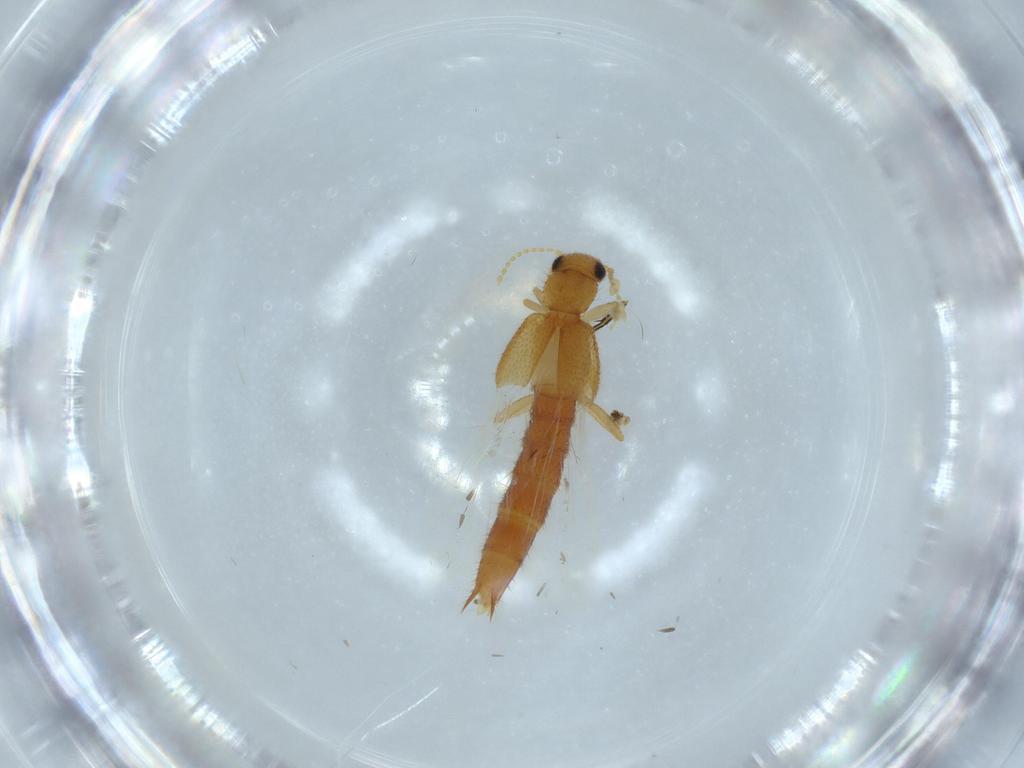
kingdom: Animalia
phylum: Arthropoda
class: Insecta
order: Coleoptera
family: Staphylinidae
